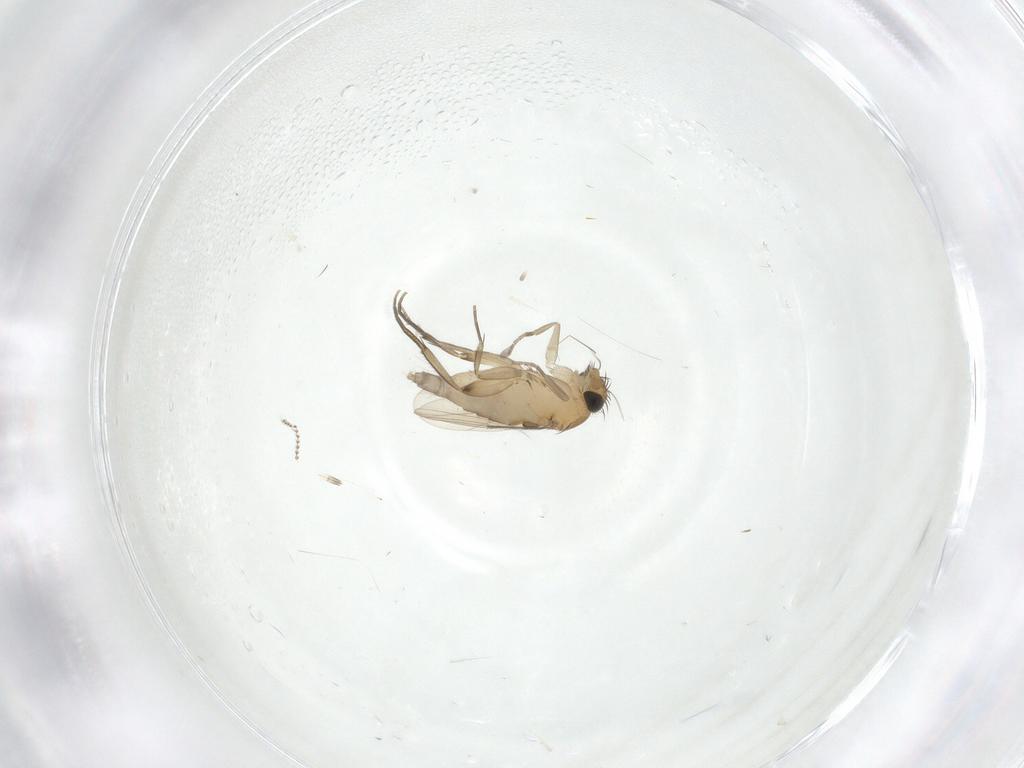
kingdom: Animalia
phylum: Arthropoda
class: Insecta
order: Diptera
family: Phoridae
